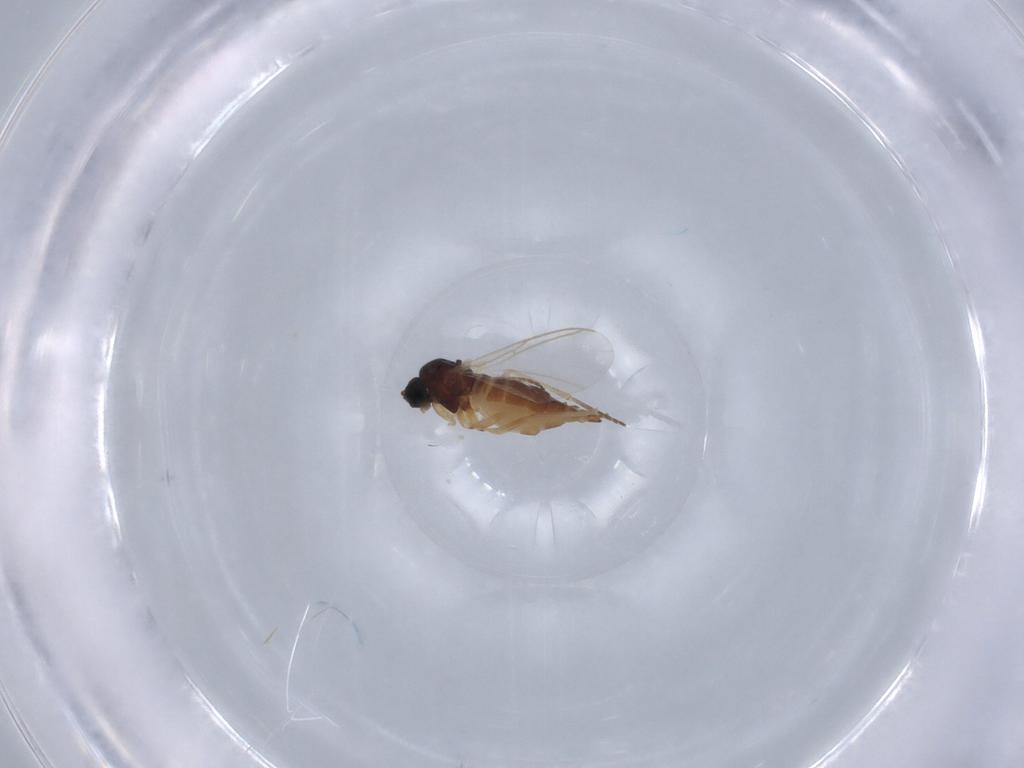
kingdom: Animalia
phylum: Arthropoda
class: Insecta
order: Diptera
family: Sciaridae
